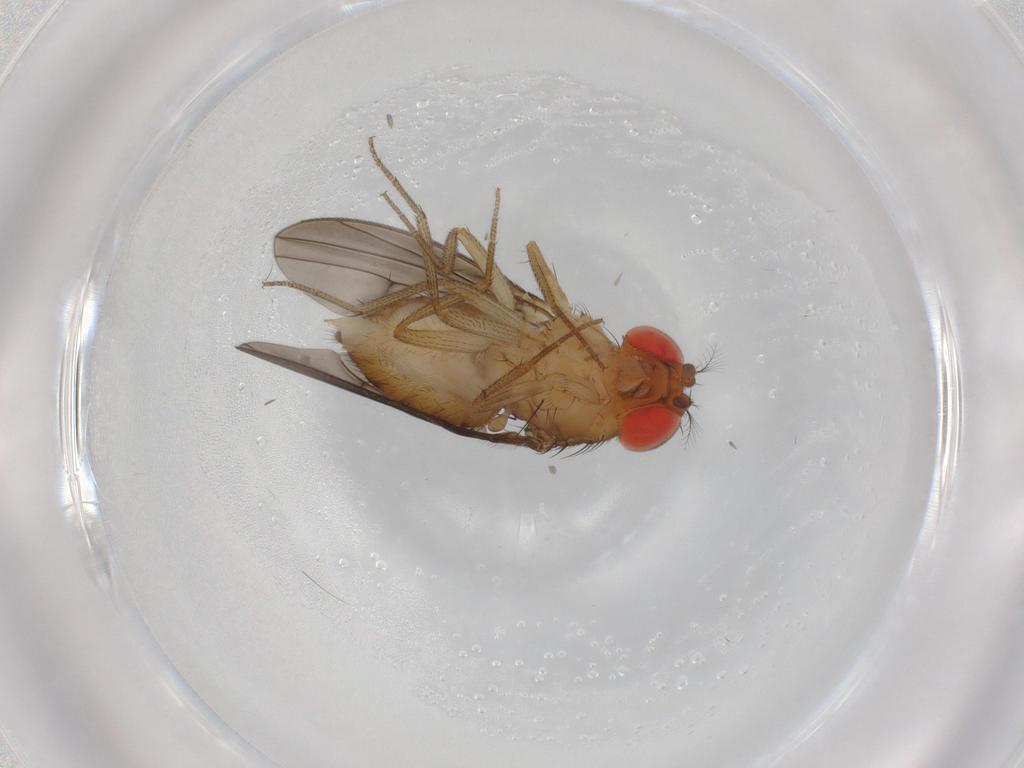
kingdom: Animalia
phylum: Arthropoda
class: Insecta
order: Diptera
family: Drosophilidae
